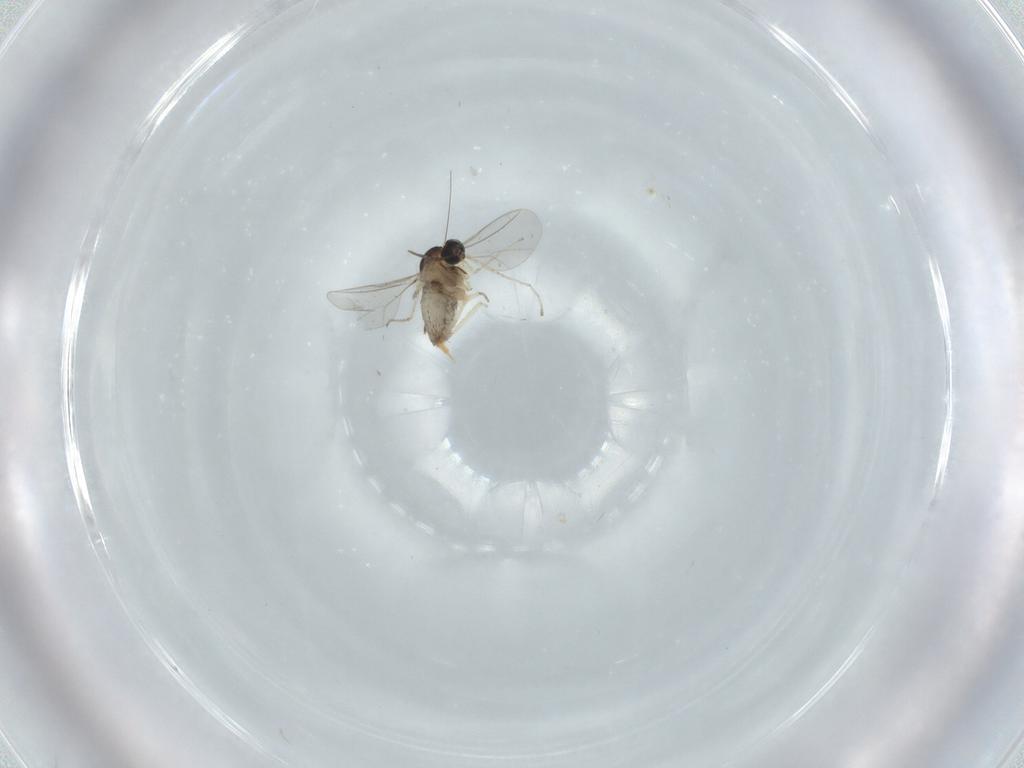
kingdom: Animalia
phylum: Arthropoda
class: Insecta
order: Diptera
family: Cecidomyiidae
